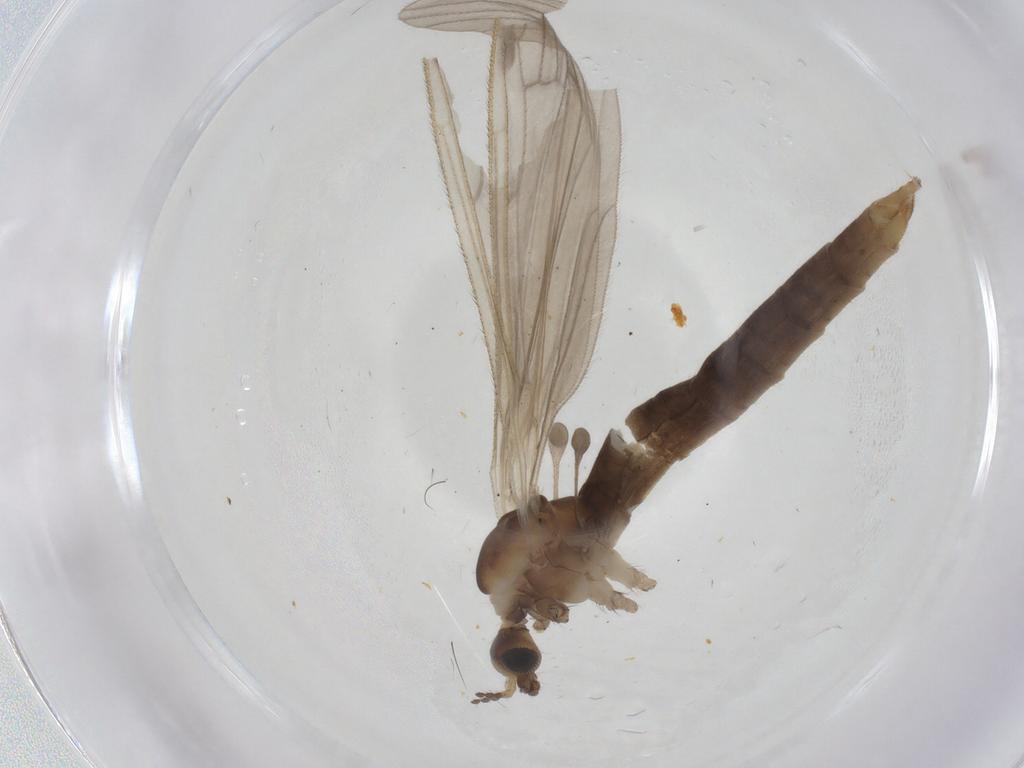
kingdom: Animalia
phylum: Arthropoda
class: Insecta
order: Diptera
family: Limoniidae
